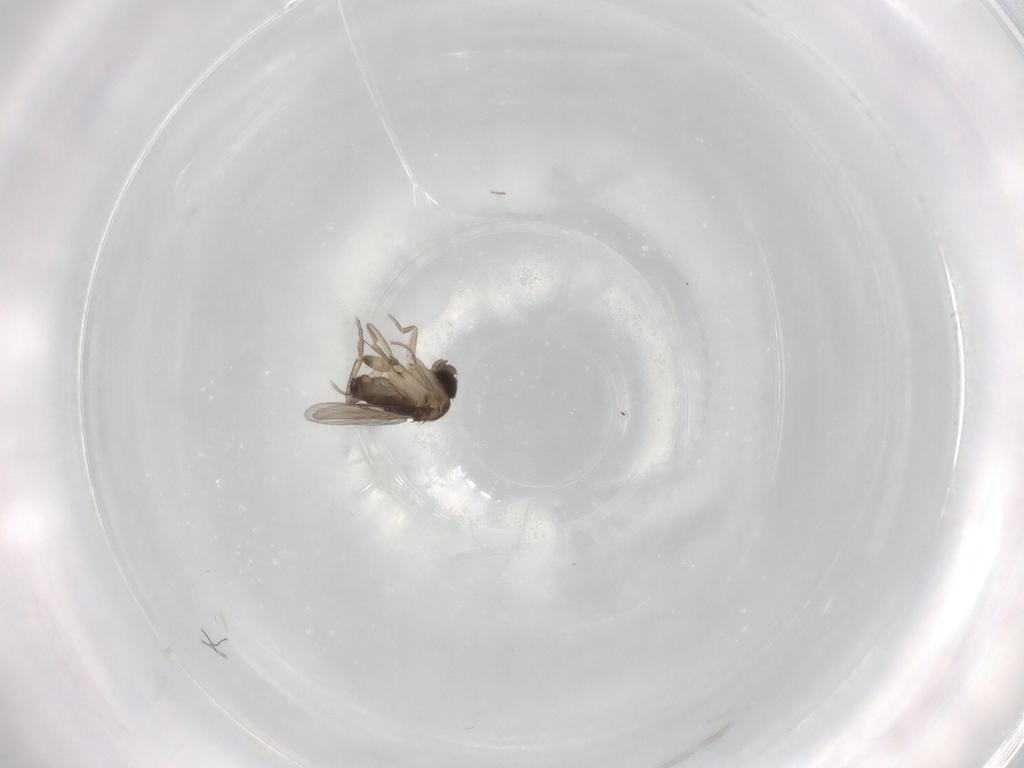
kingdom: Animalia
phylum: Arthropoda
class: Insecta
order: Diptera
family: Phoridae
